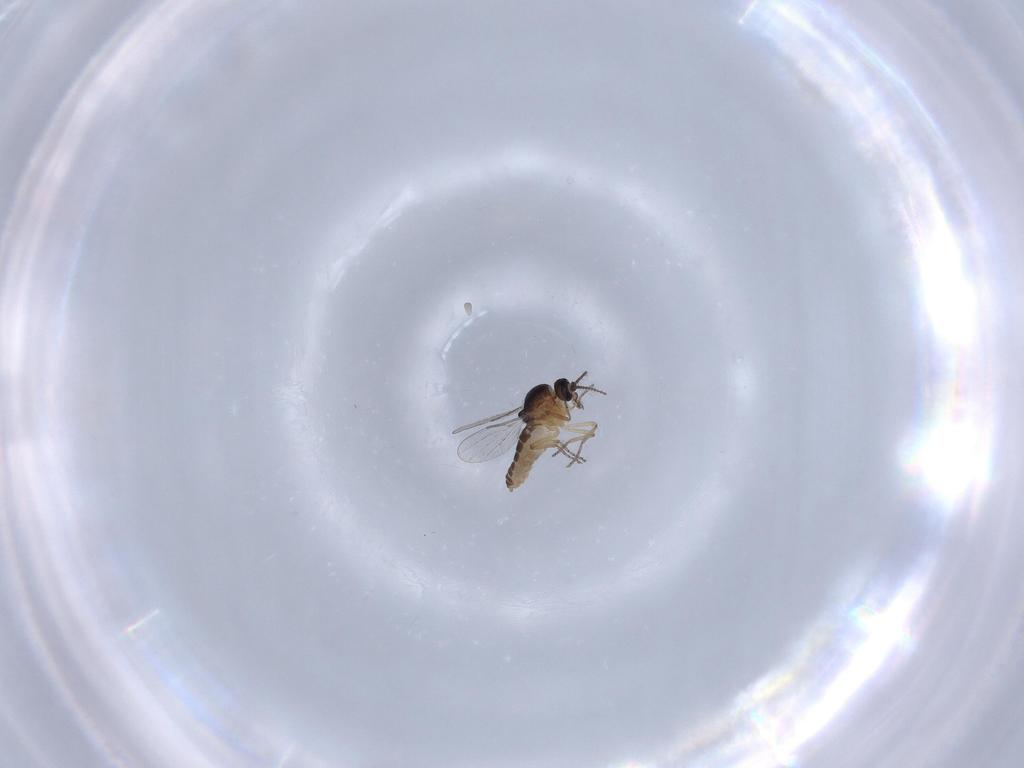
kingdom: Animalia
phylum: Arthropoda
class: Insecta
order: Diptera
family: Ceratopogonidae
